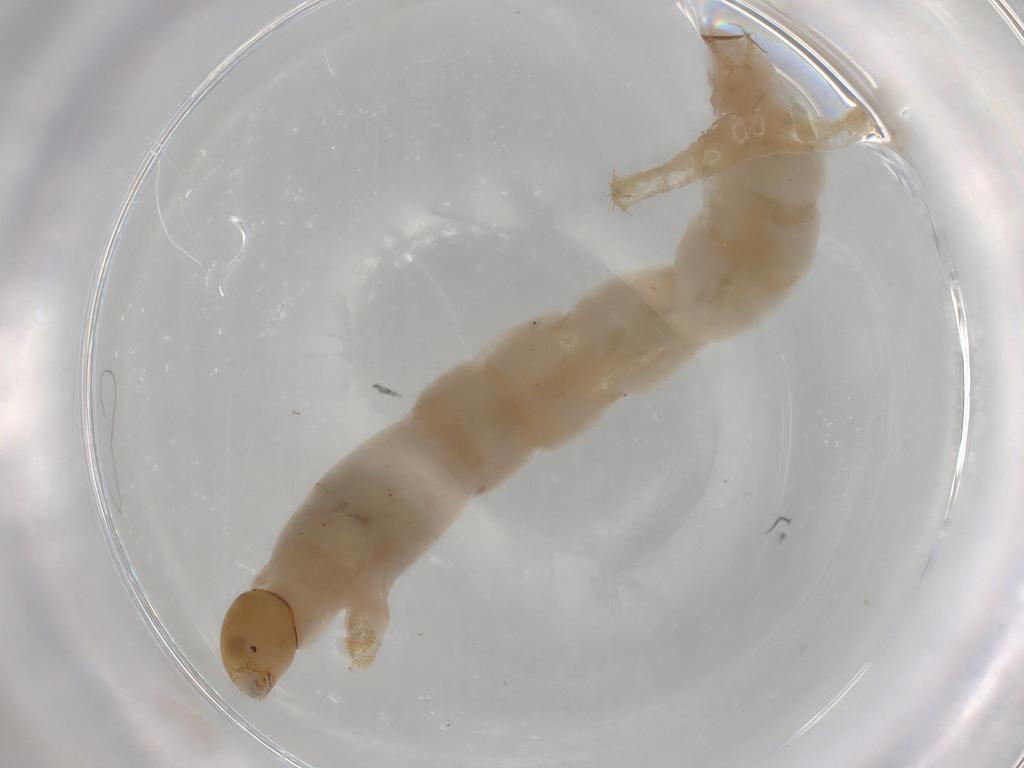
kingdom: Animalia
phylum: Arthropoda
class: Insecta
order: Diptera
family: Chironomidae
